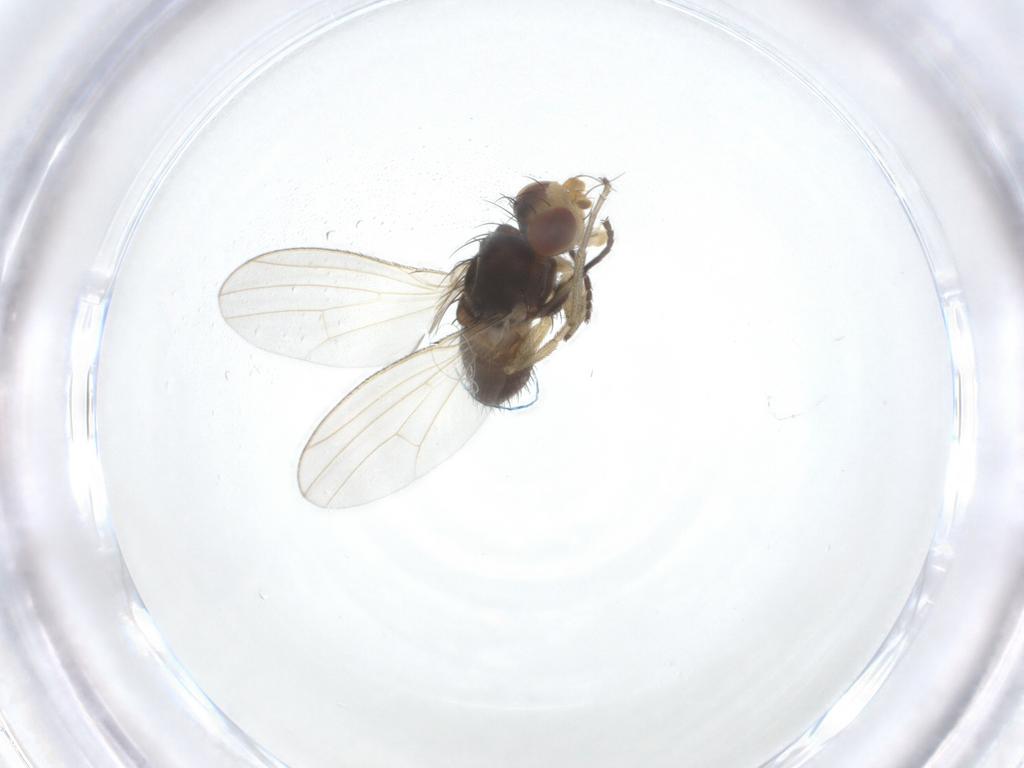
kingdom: Animalia
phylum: Arthropoda
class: Insecta
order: Diptera
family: Heleomyzidae
